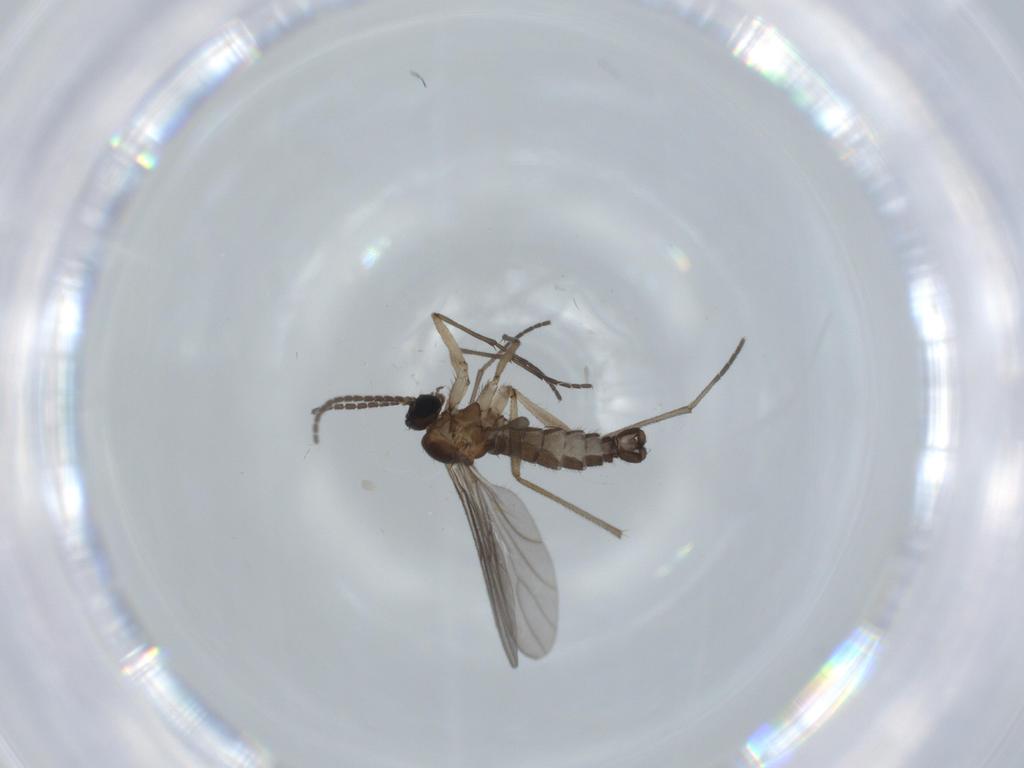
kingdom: Animalia
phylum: Arthropoda
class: Insecta
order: Diptera
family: Sciaridae
